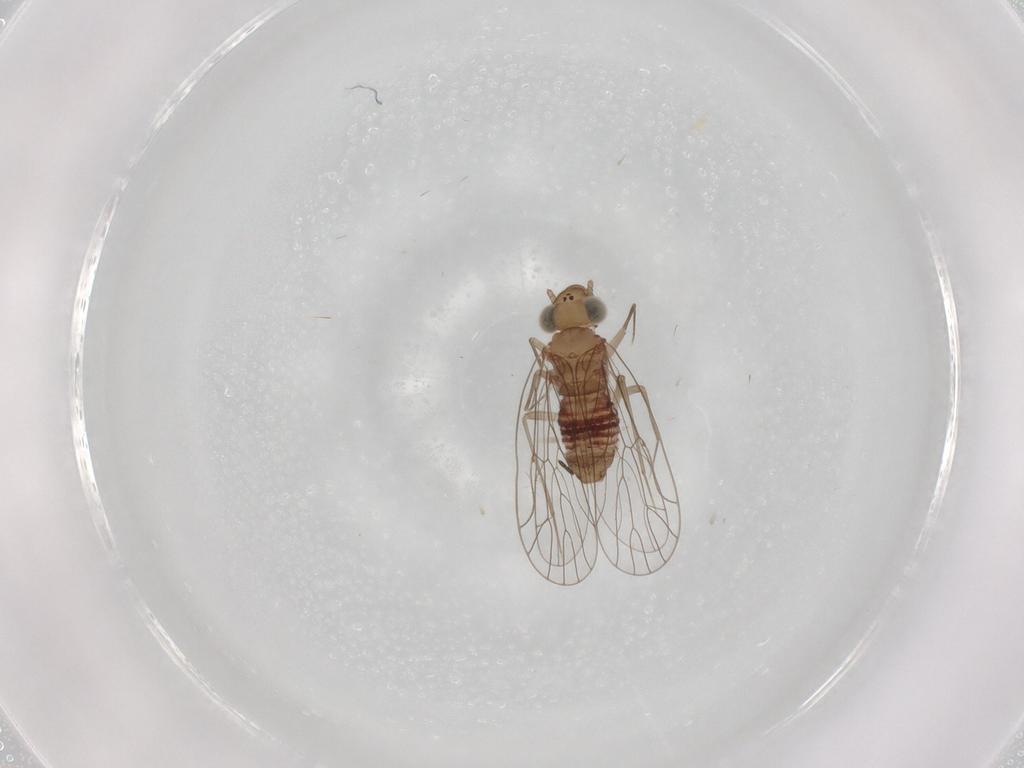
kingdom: Animalia
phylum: Arthropoda
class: Insecta
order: Psocodea
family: Amphientomidae
